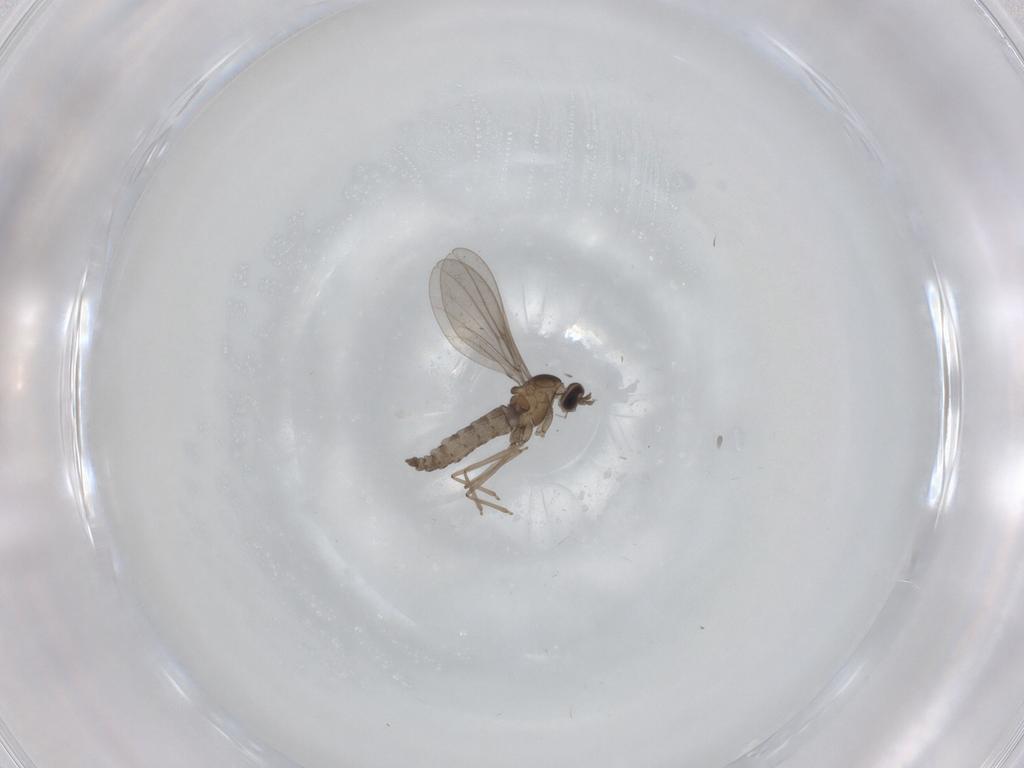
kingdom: Animalia
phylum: Arthropoda
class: Insecta
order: Diptera
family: Cecidomyiidae
